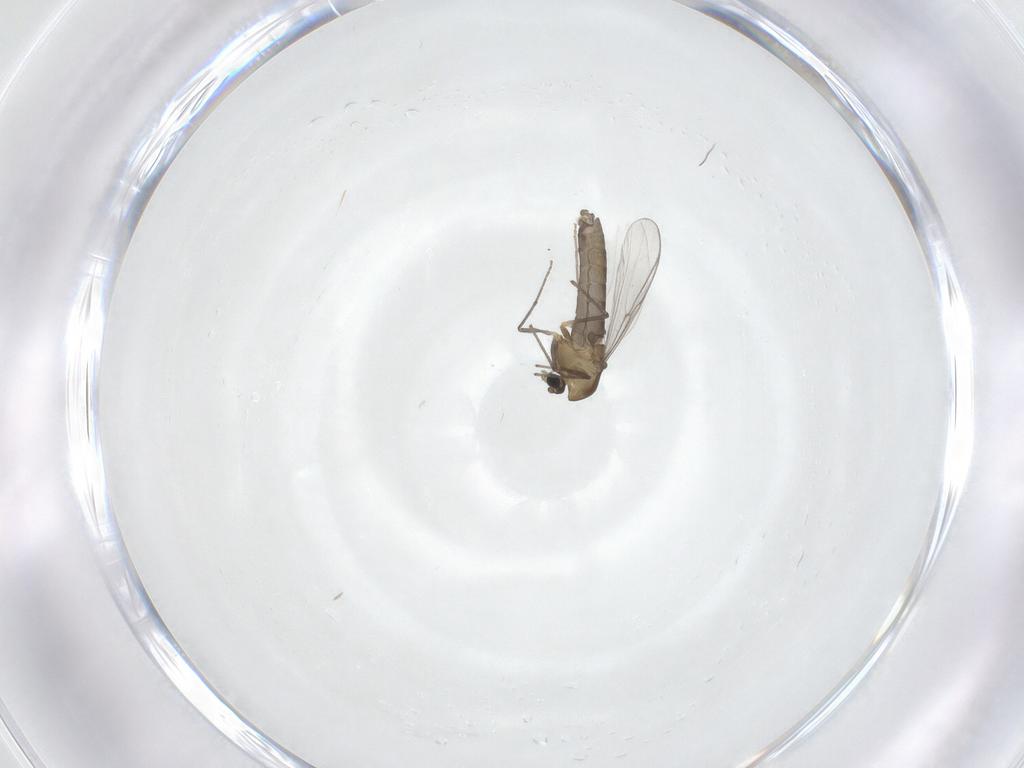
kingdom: Animalia
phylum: Arthropoda
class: Insecta
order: Diptera
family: Chironomidae
